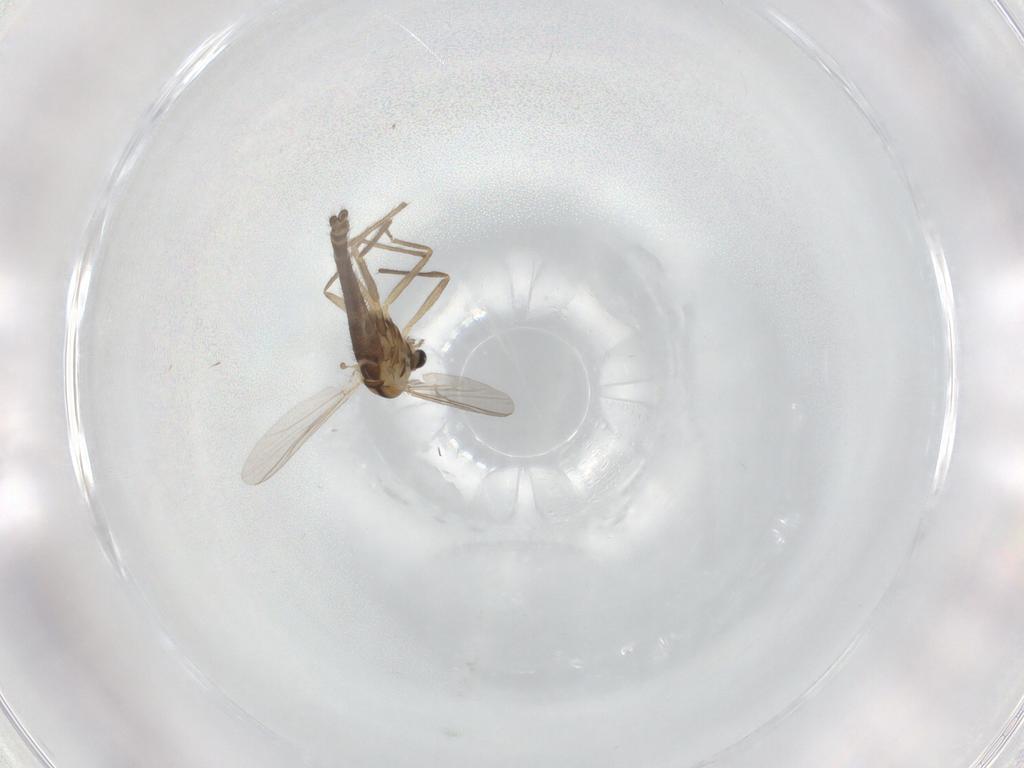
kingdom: Animalia
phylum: Arthropoda
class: Insecta
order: Diptera
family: Chironomidae
